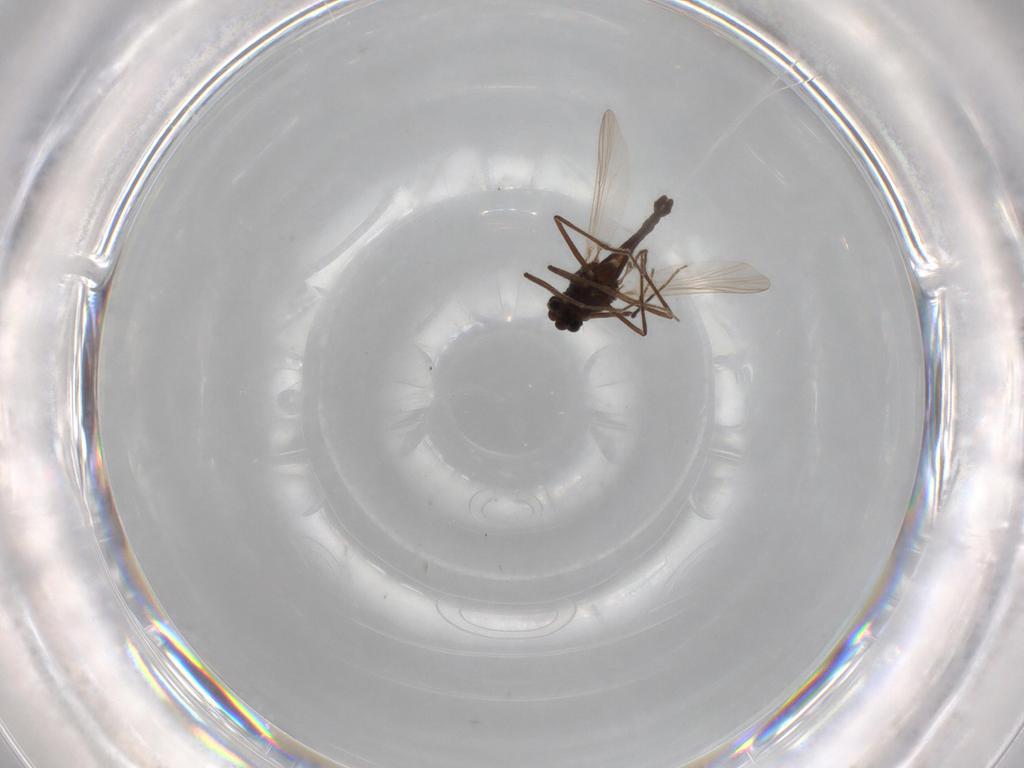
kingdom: Animalia
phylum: Arthropoda
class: Insecta
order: Diptera
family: Chironomidae
